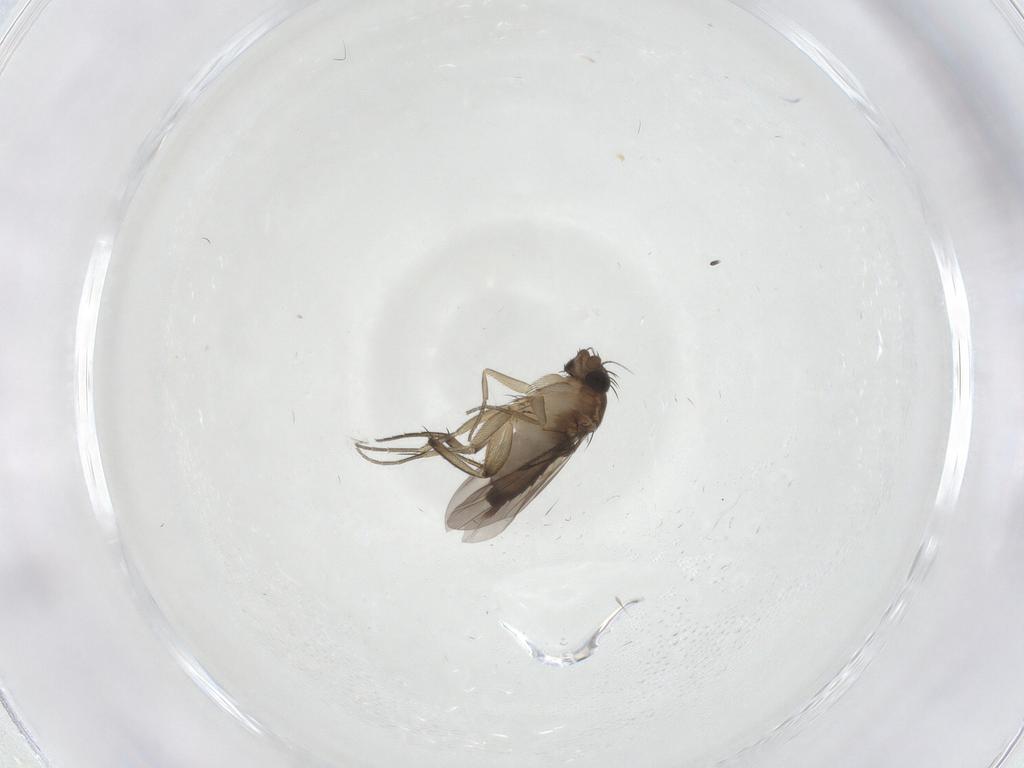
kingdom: Animalia
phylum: Arthropoda
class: Insecta
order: Diptera
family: Phoridae
